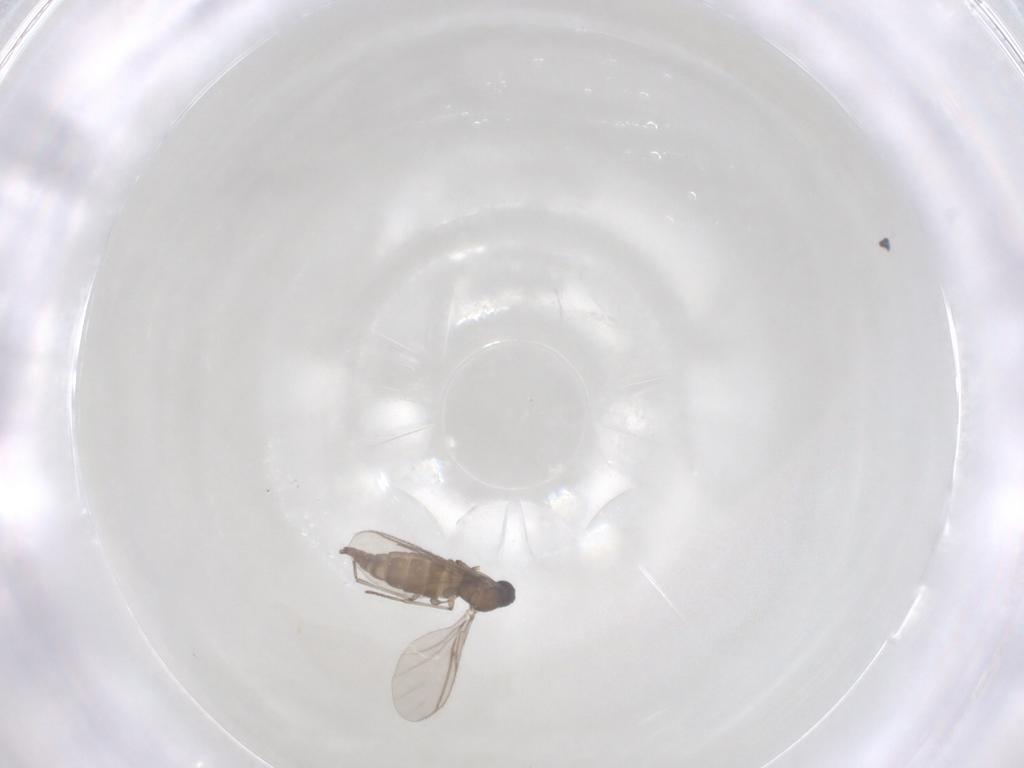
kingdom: Animalia
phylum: Arthropoda
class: Insecta
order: Diptera
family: Sciaridae
